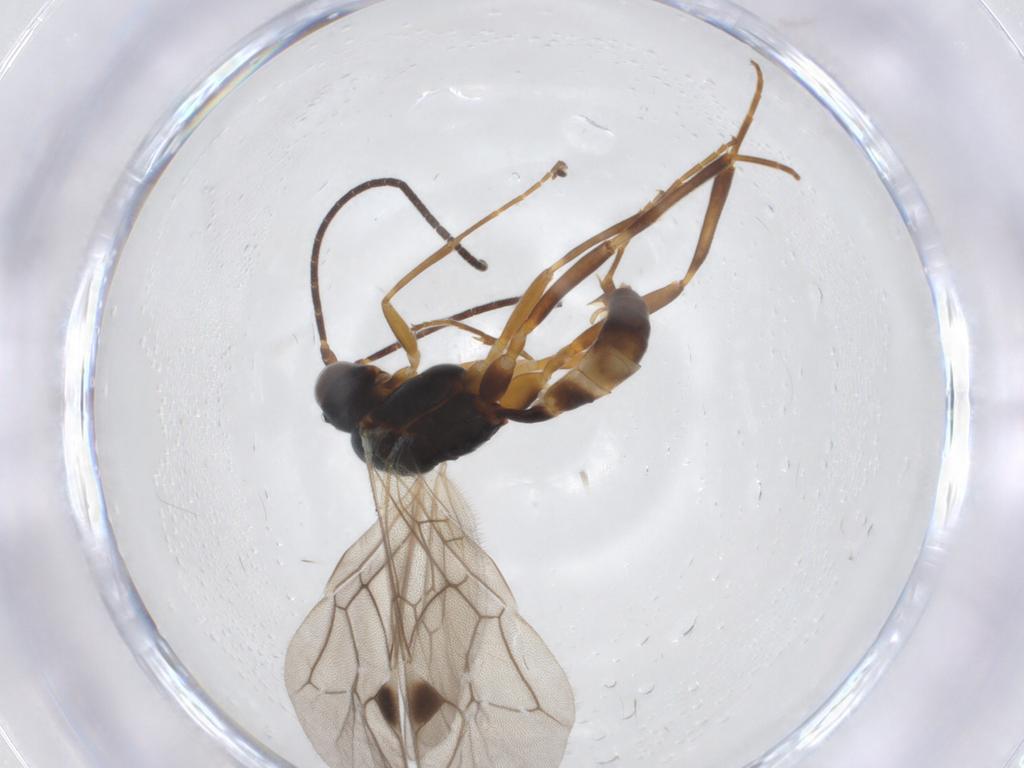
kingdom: Animalia
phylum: Arthropoda
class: Insecta
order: Hymenoptera
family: Ichneumonidae
